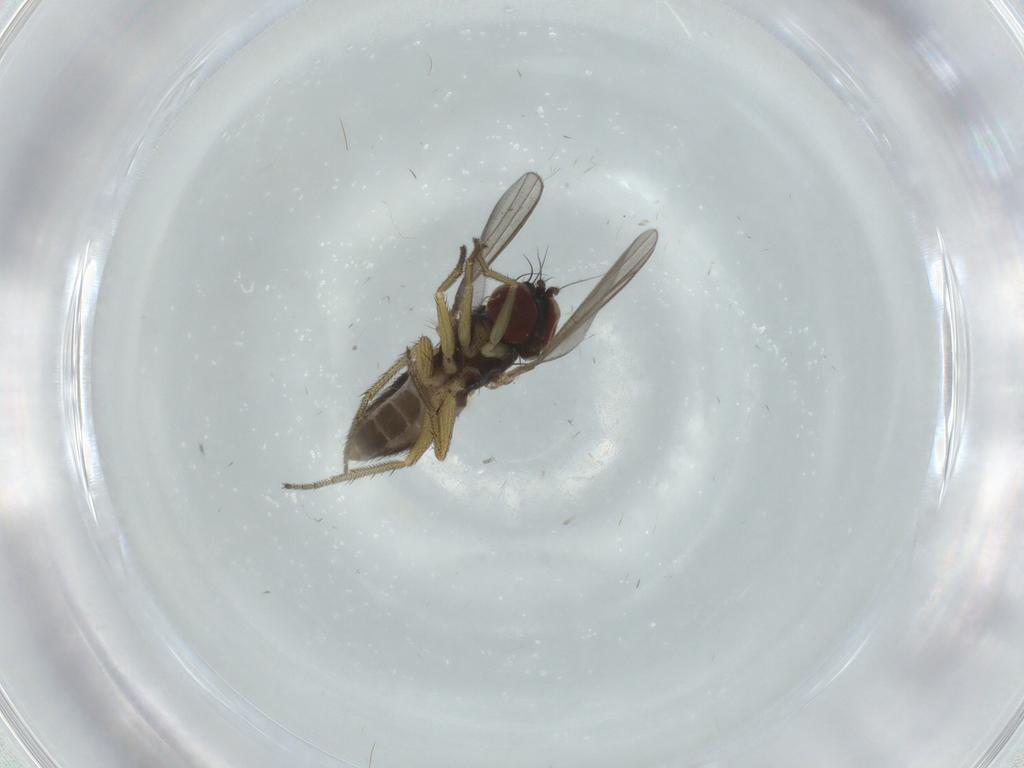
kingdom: Animalia
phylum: Arthropoda
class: Insecta
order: Diptera
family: Dolichopodidae
